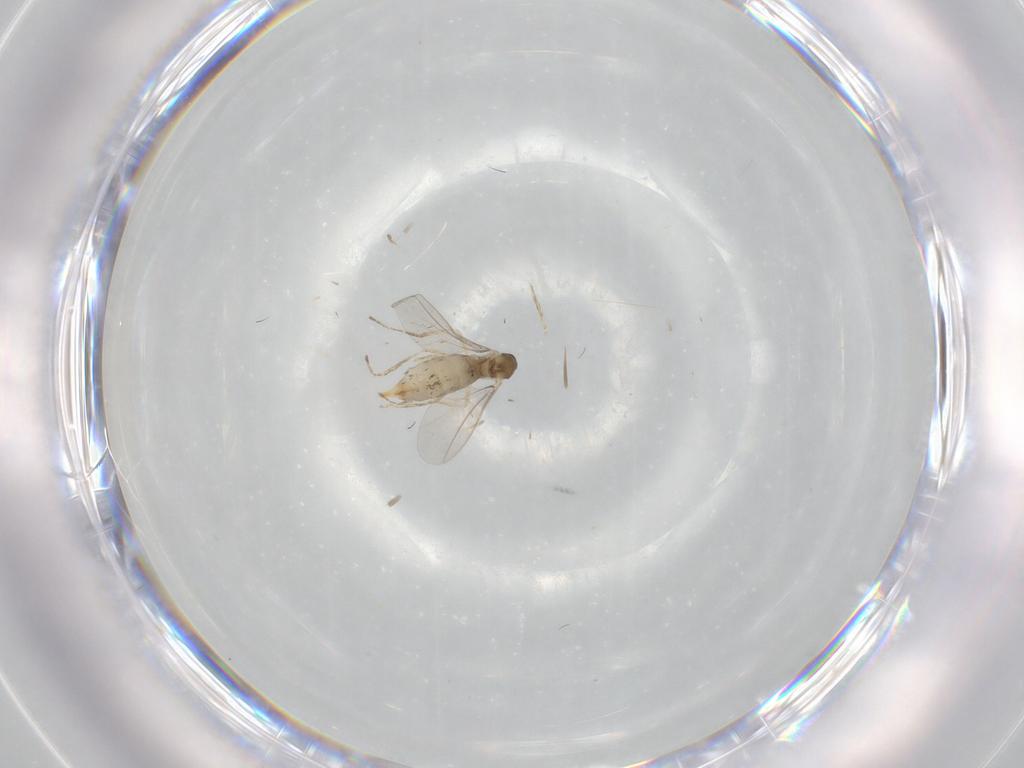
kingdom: Animalia
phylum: Arthropoda
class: Insecta
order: Diptera
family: Cecidomyiidae
